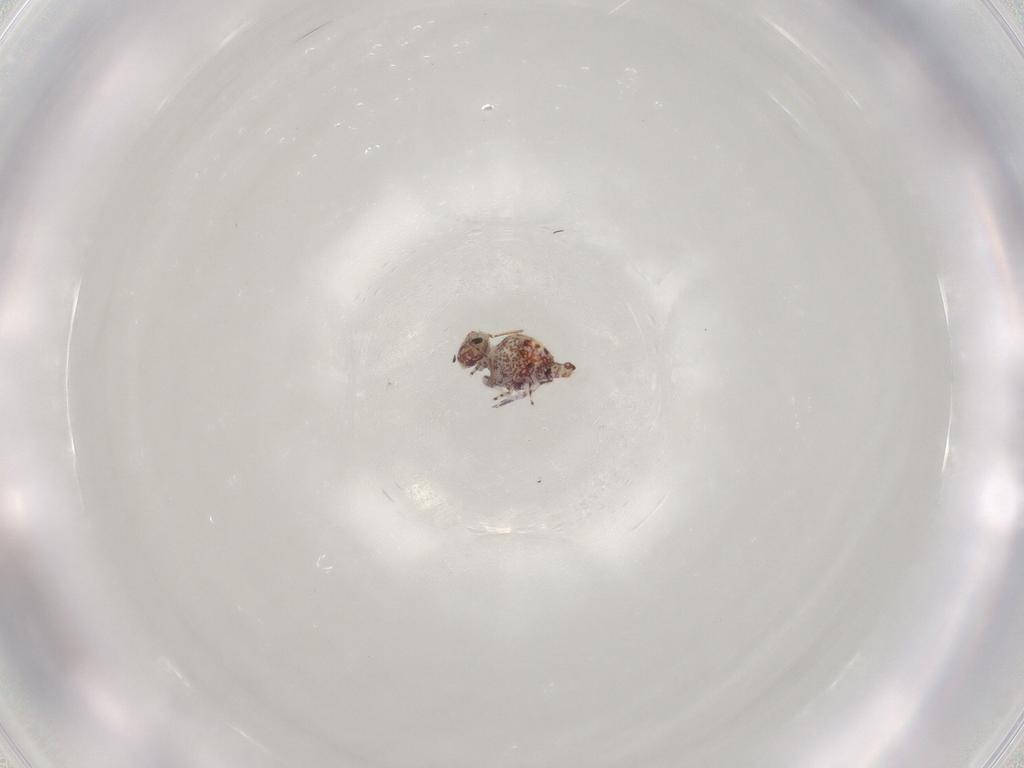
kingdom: Animalia
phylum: Arthropoda
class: Collembola
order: Symphypleona
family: Bourletiellidae
